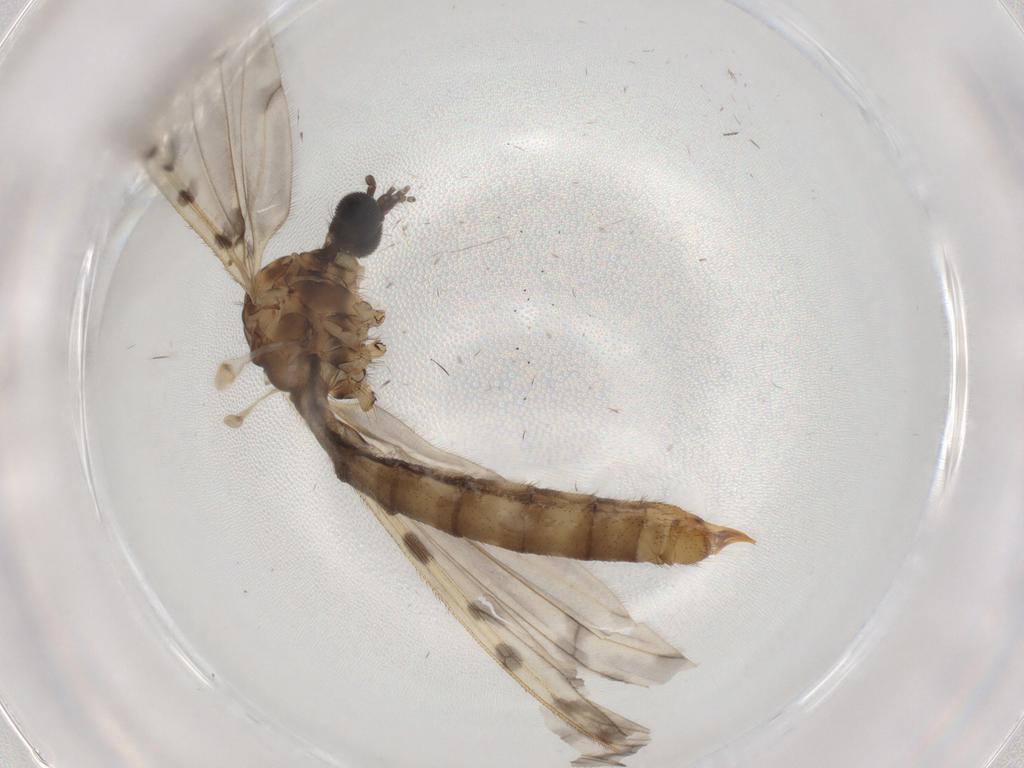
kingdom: Animalia
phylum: Arthropoda
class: Insecta
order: Diptera
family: Limoniidae
